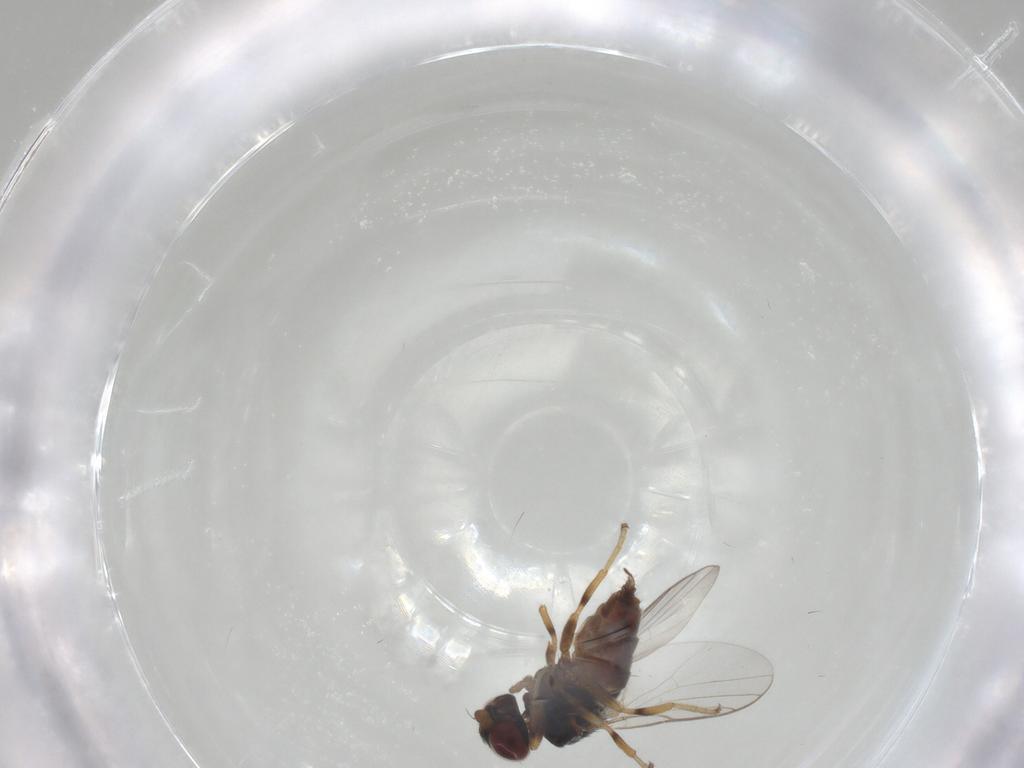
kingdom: Animalia
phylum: Arthropoda
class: Insecta
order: Diptera
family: Chloropidae
